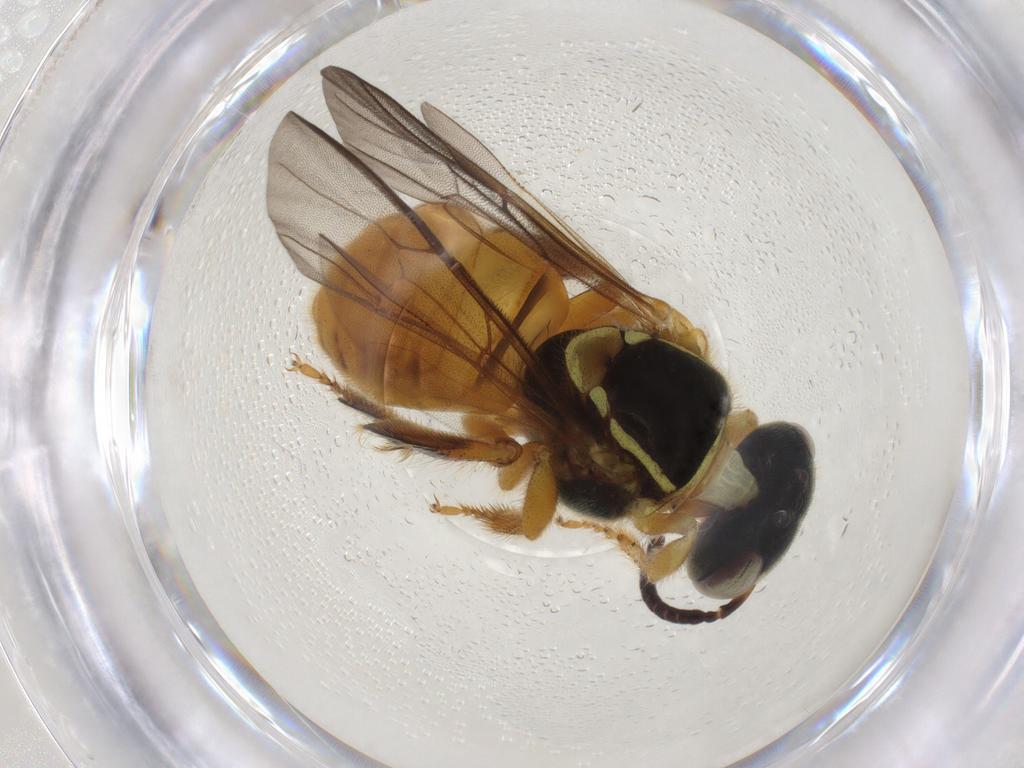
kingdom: Animalia
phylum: Arthropoda
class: Insecta
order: Hymenoptera
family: Apidae
